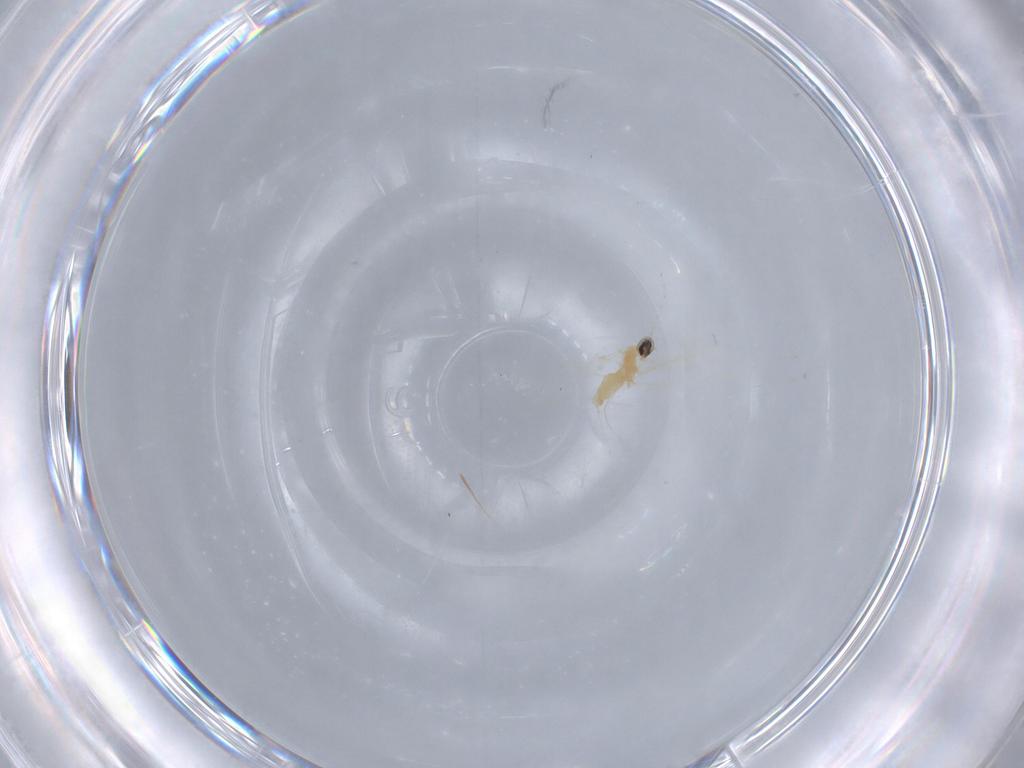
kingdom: Animalia
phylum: Arthropoda
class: Insecta
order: Diptera
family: Cecidomyiidae
